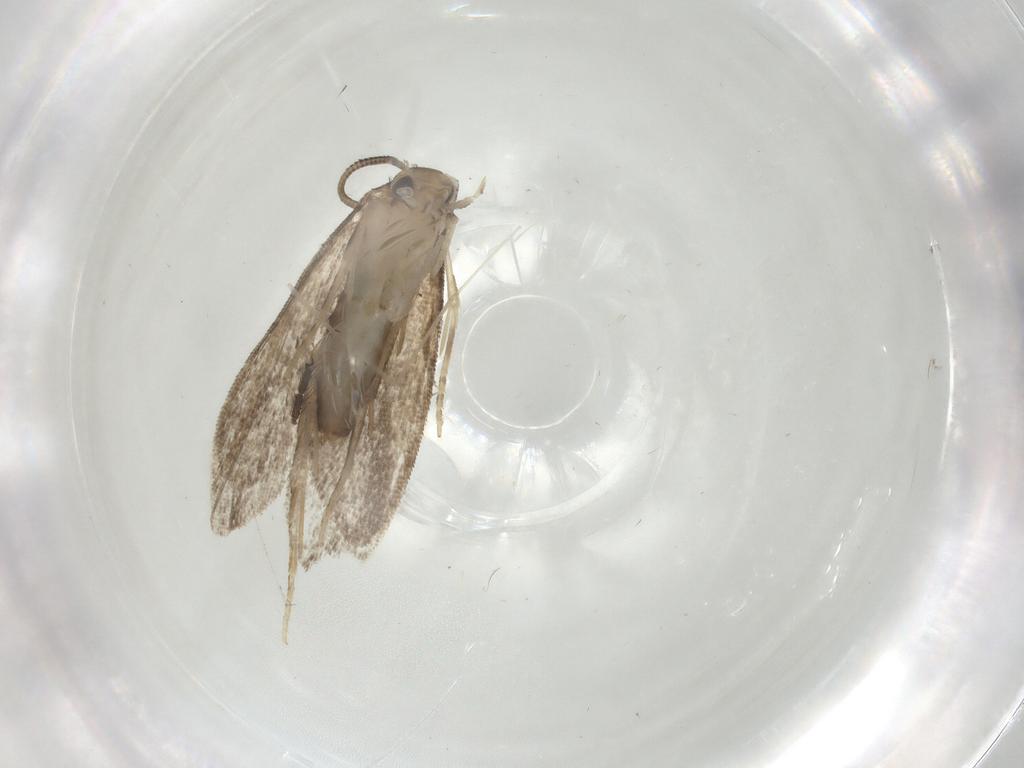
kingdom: Animalia
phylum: Arthropoda
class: Insecta
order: Lepidoptera
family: Dryadaulidae
